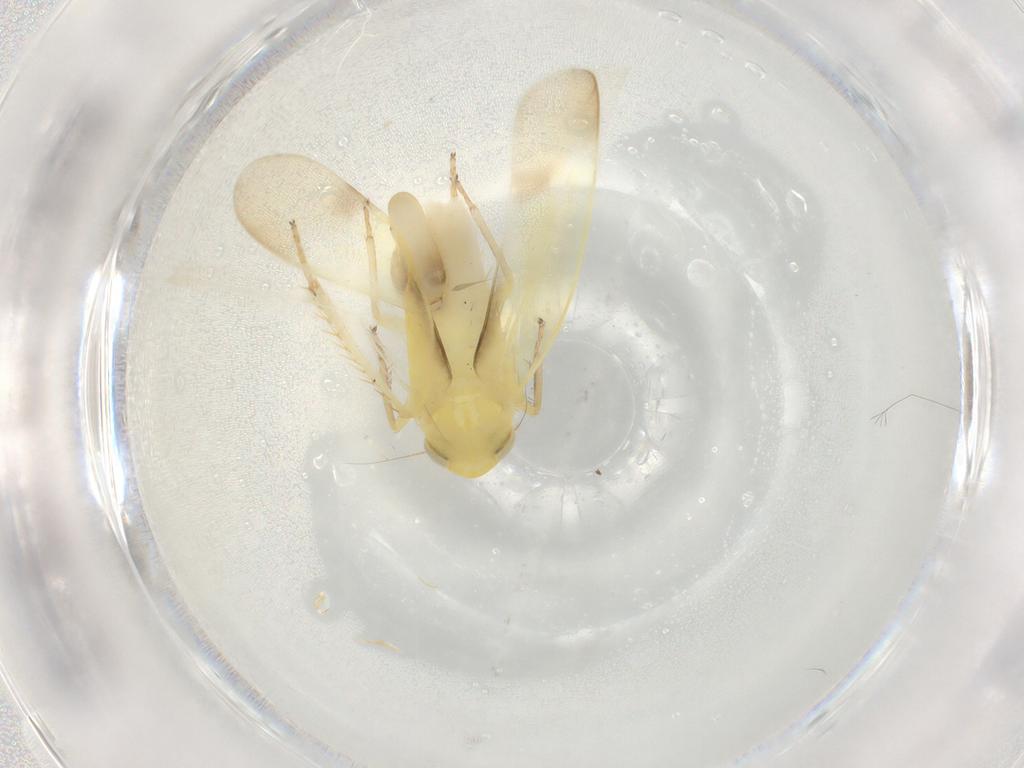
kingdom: Animalia
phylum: Arthropoda
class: Insecta
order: Hemiptera
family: Cicadellidae
